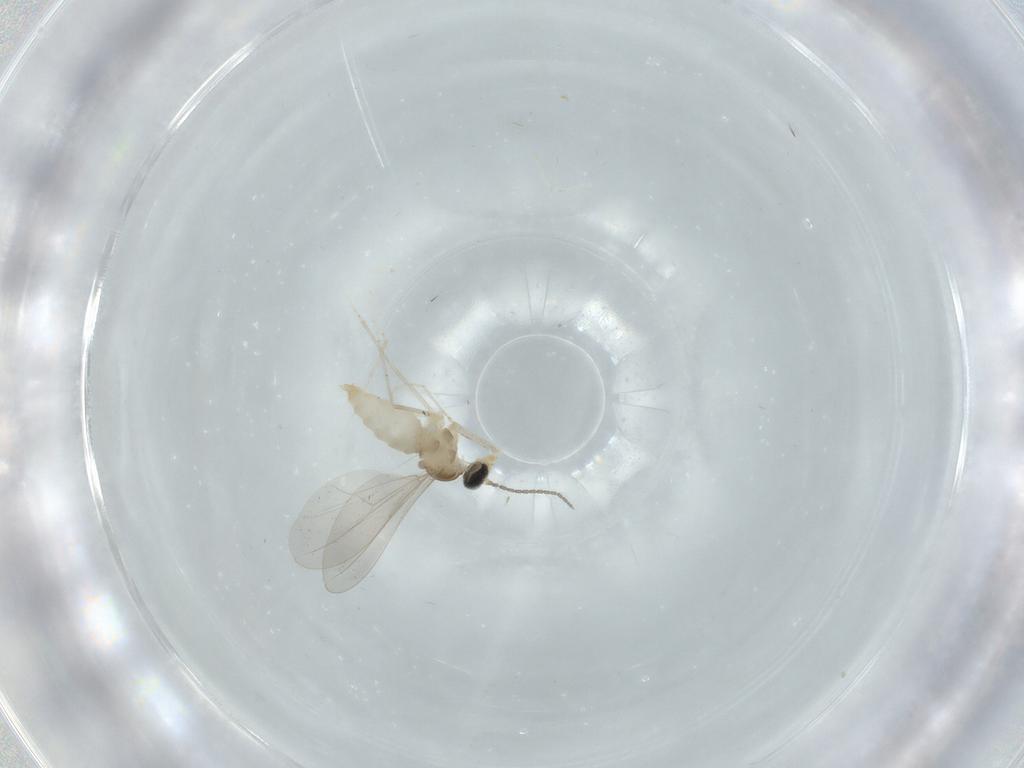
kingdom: Animalia
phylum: Arthropoda
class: Insecta
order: Diptera
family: Cecidomyiidae
